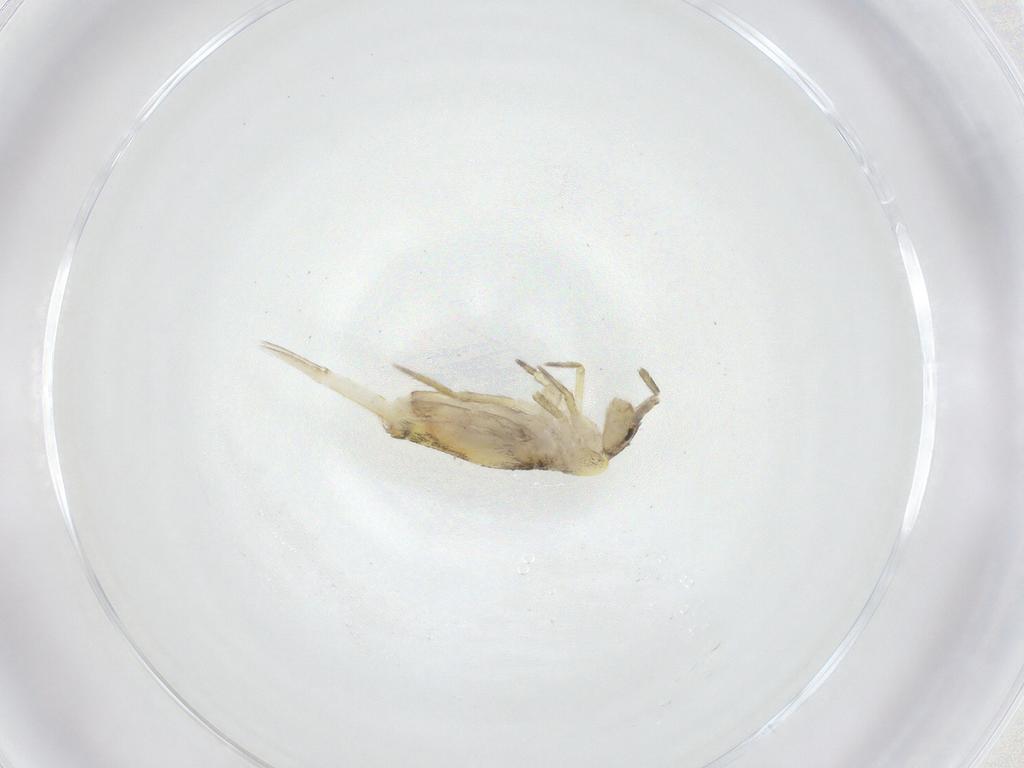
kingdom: Animalia
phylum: Arthropoda
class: Collembola
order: Entomobryomorpha
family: Entomobryidae
